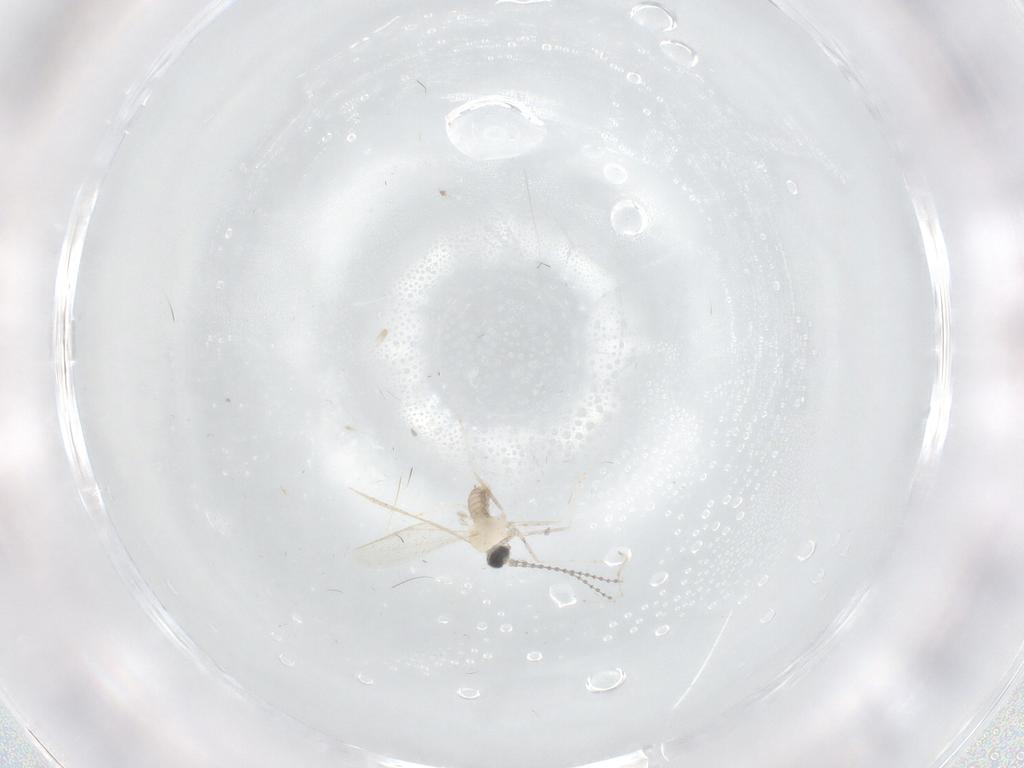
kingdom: Animalia
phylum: Arthropoda
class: Insecta
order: Diptera
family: Cecidomyiidae
